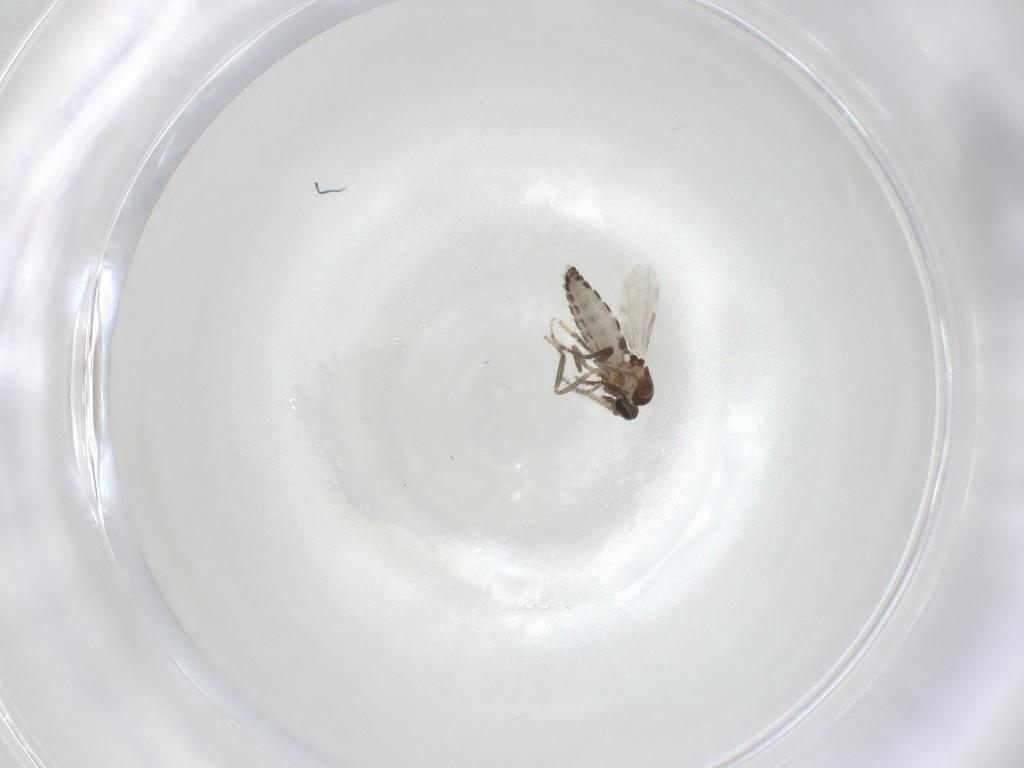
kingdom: Animalia
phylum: Arthropoda
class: Insecta
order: Diptera
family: Ceratopogonidae
